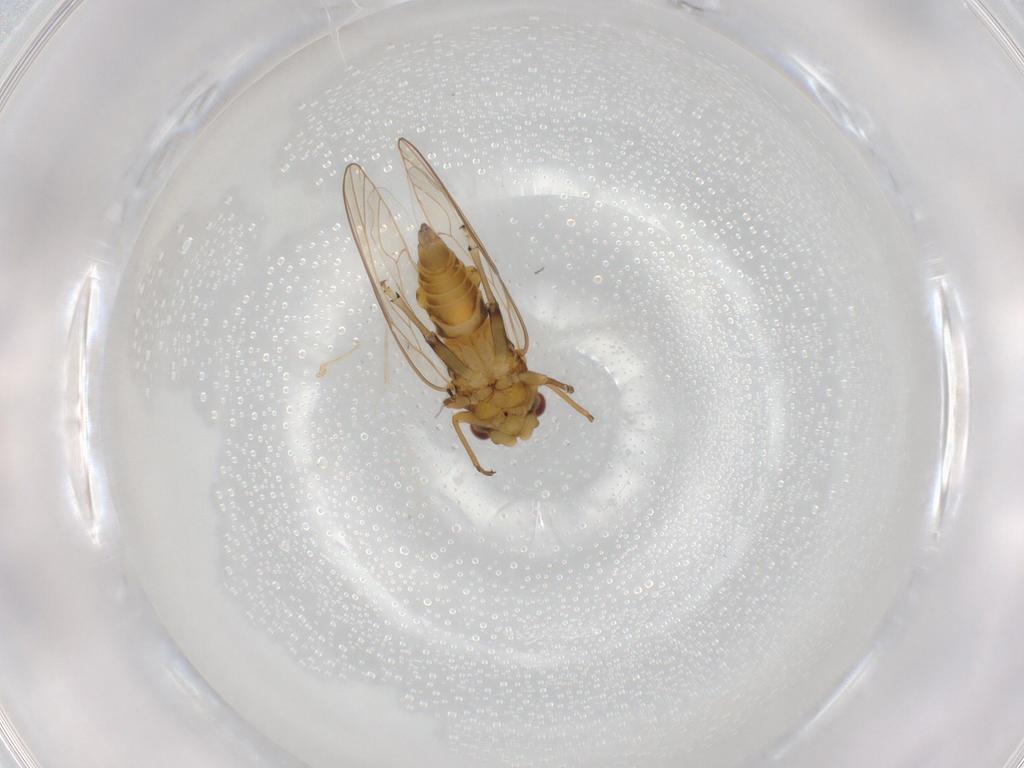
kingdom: Animalia
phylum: Arthropoda
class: Insecta
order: Hemiptera
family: Psyllidae
